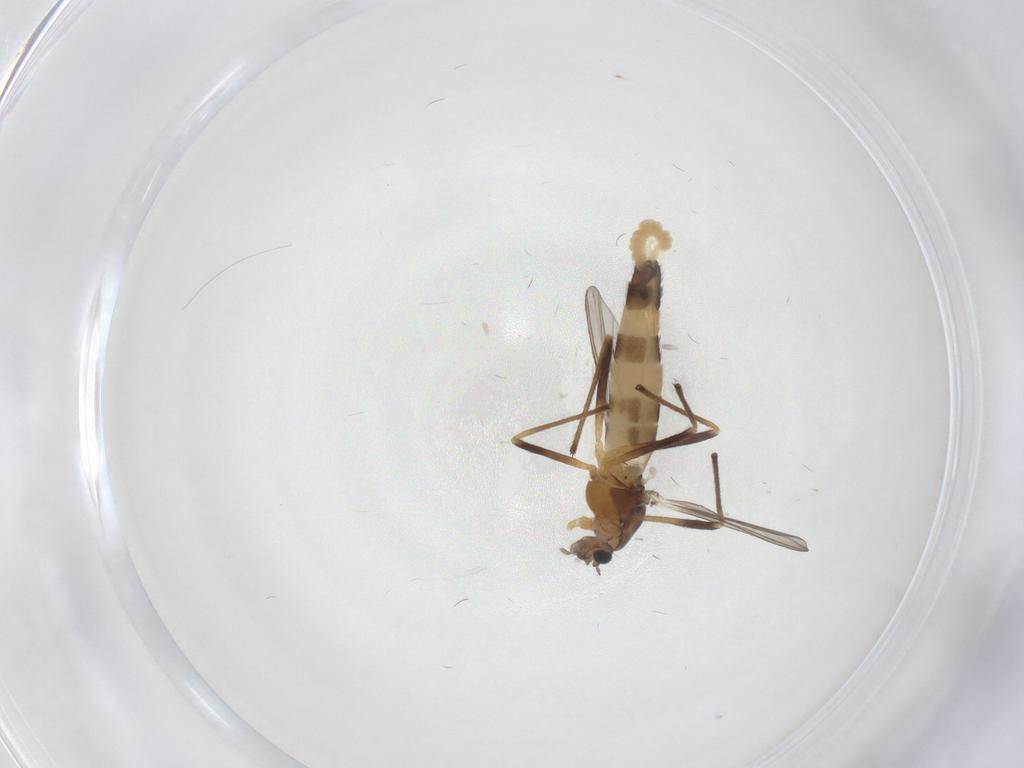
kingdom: Animalia
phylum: Arthropoda
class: Insecta
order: Diptera
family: Chironomidae
